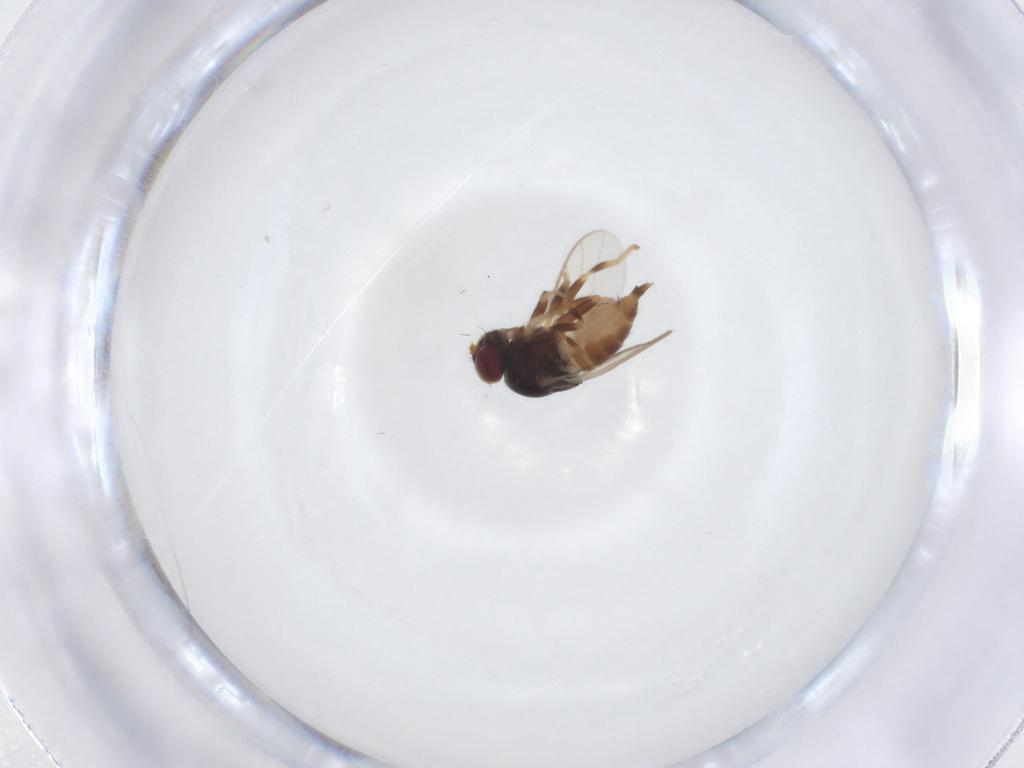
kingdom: Animalia
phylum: Arthropoda
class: Insecta
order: Diptera
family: Chloropidae
